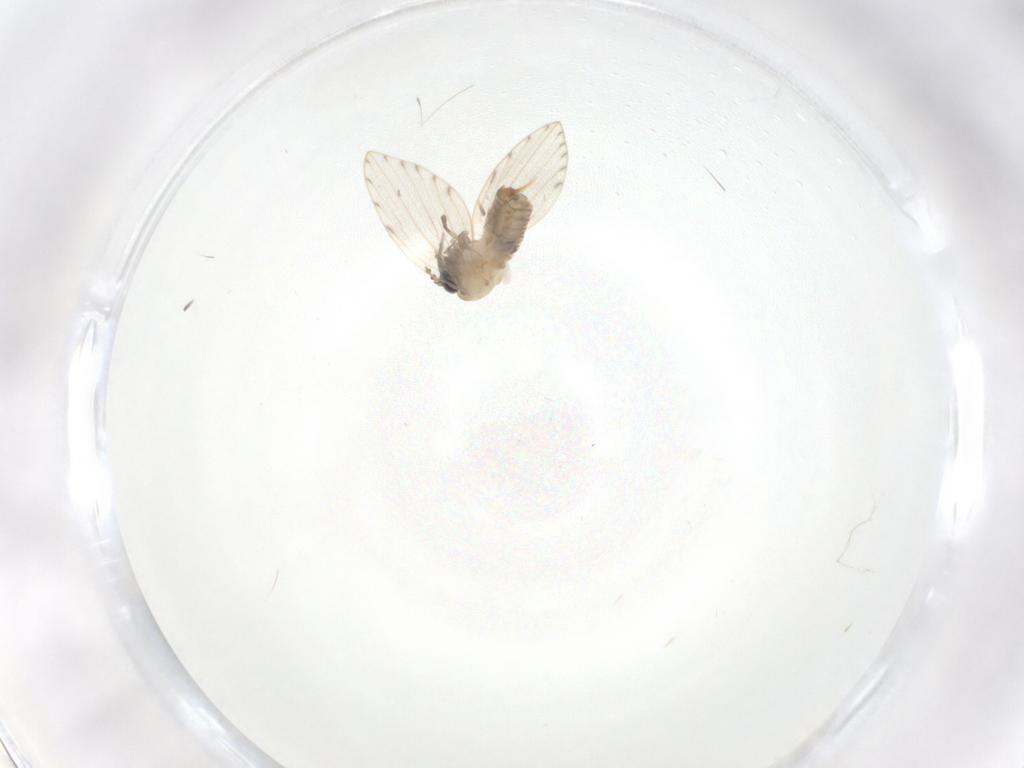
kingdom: Animalia
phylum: Arthropoda
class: Insecta
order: Diptera
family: Psychodidae
